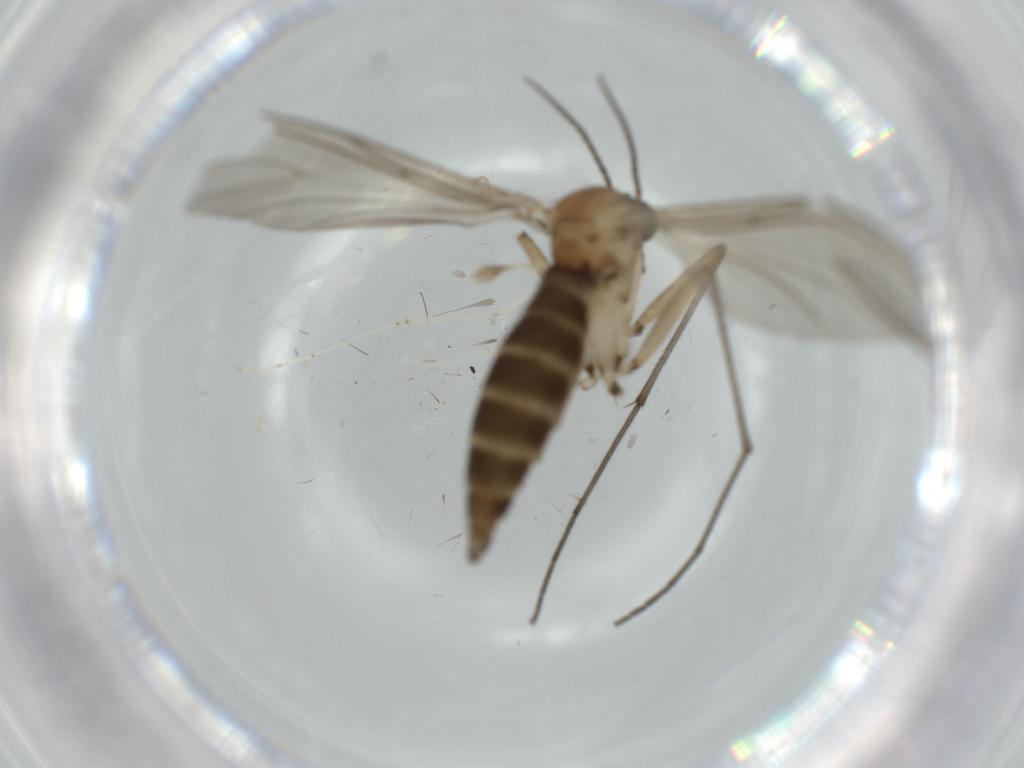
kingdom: Animalia
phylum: Arthropoda
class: Insecta
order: Diptera
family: Sciaridae
